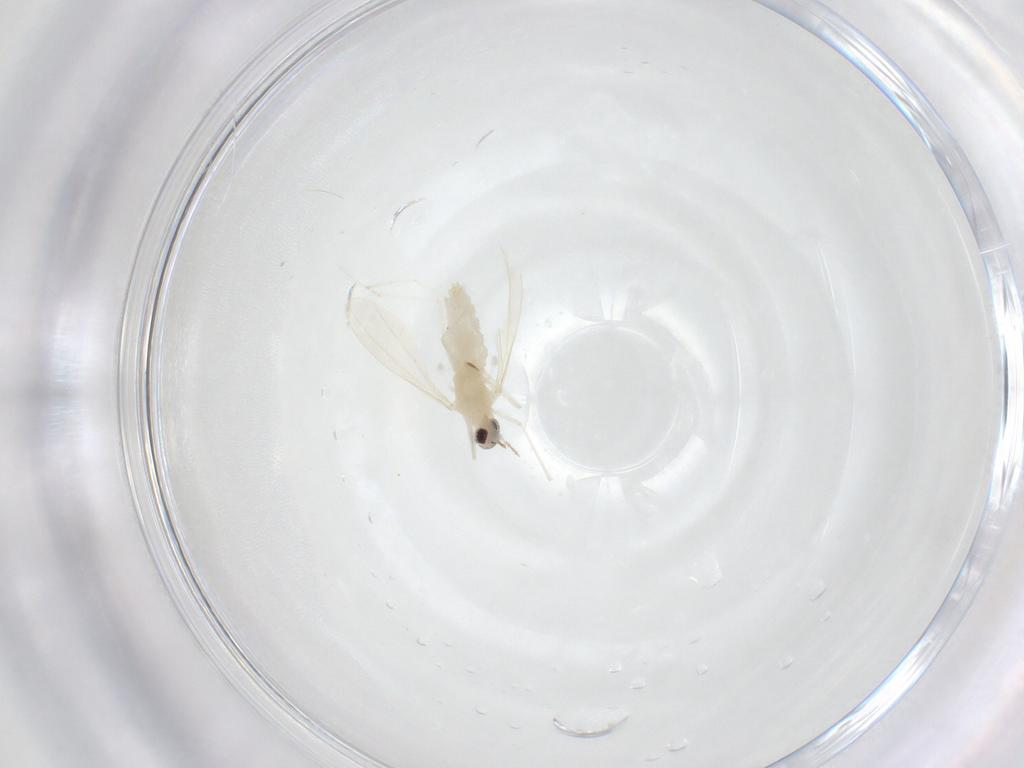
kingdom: Animalia
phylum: Arthropoda
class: Insecta
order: Diptera
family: Cecidomyiidae
